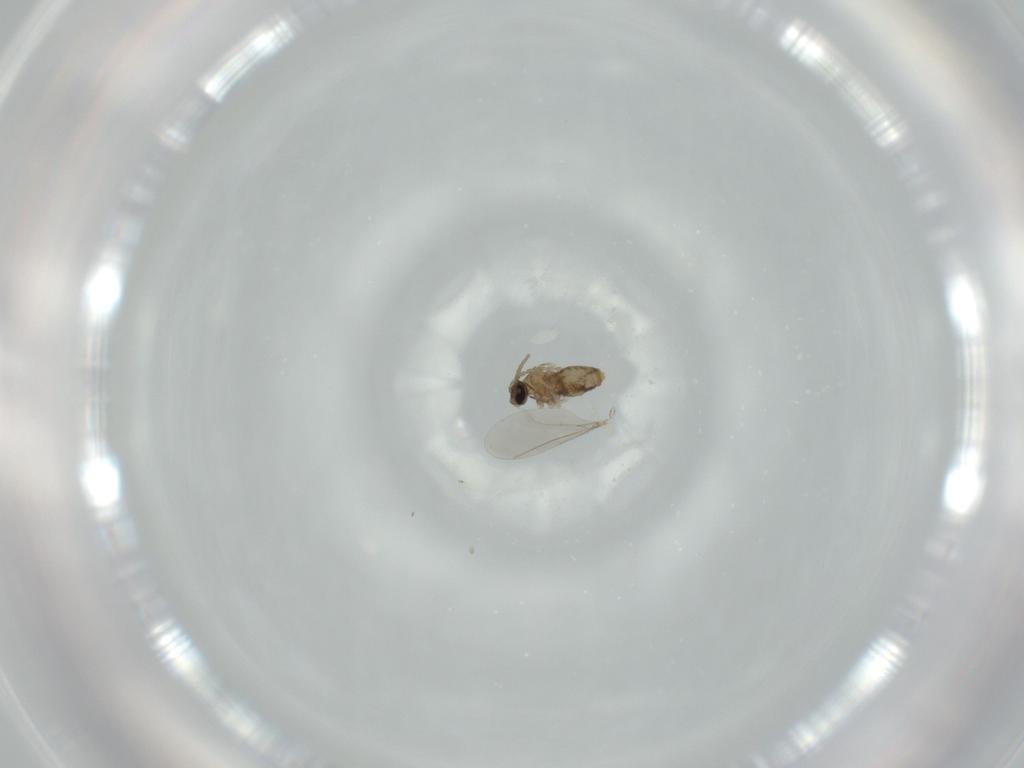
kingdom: Animalia
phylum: Arthropoda
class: Insecta
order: Diptera
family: Cecidomyiidae
